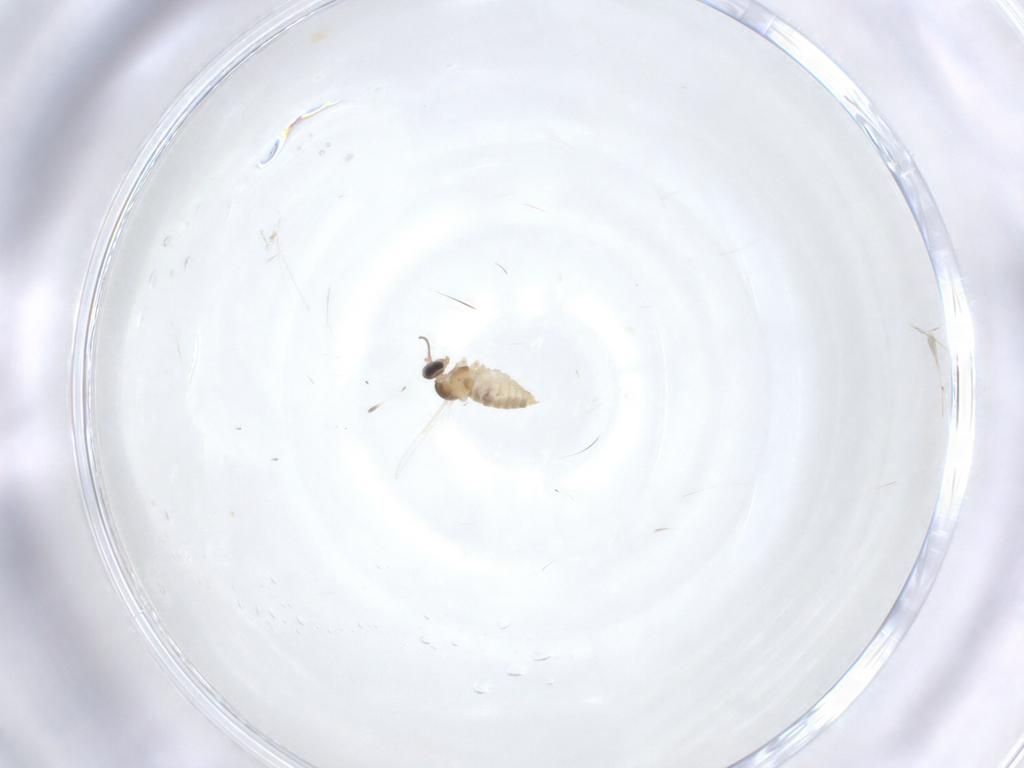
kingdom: Animalia
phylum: Arthropoda
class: Insecta
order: Diptera
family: Cecidomyiidae
